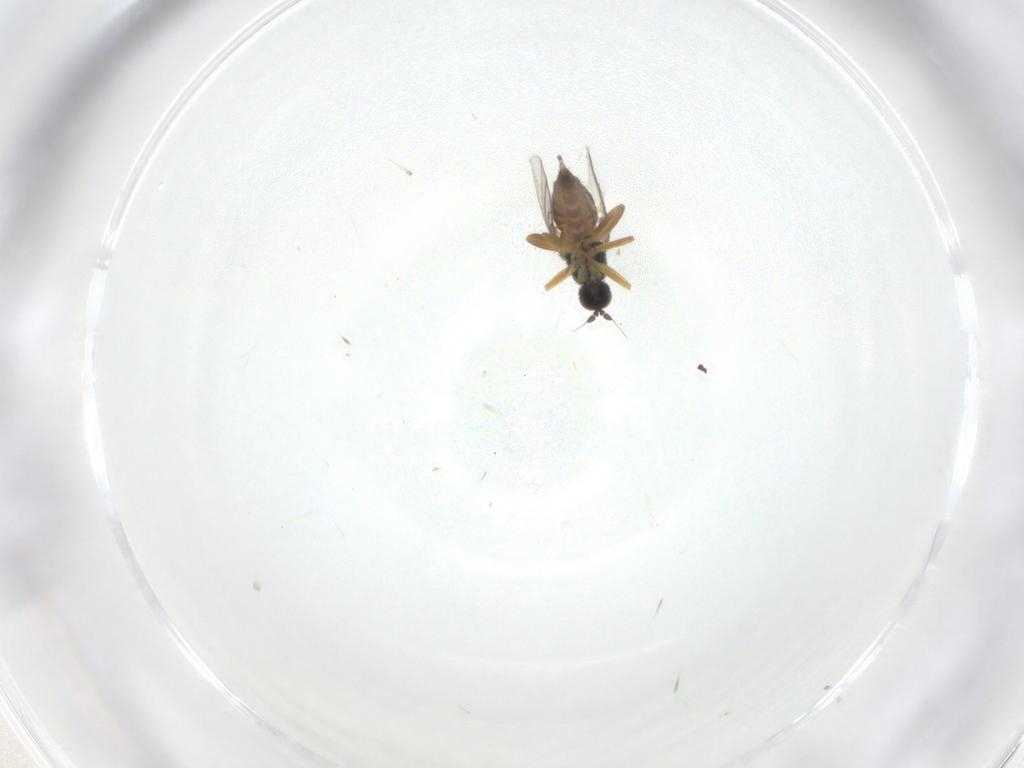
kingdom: Animalia
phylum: Arthropoda
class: Insecta
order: Diptera
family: Hybotidae
